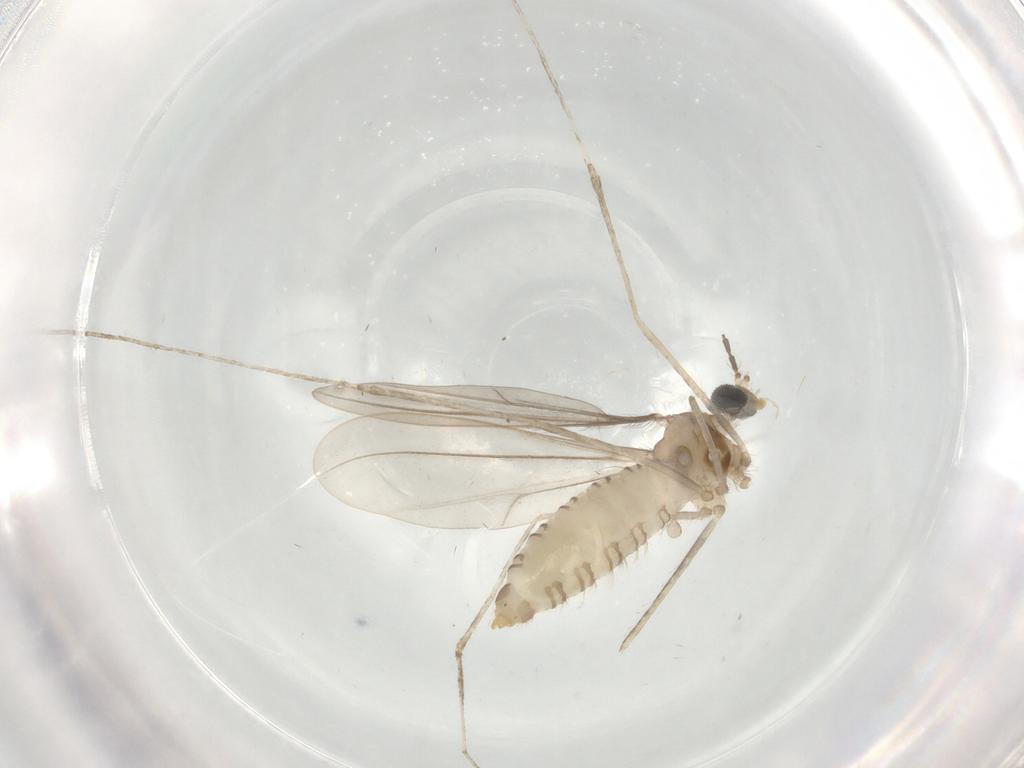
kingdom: Animalia
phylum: Arthropoda
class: Insecta
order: Diptera
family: Cecidomyiidae
